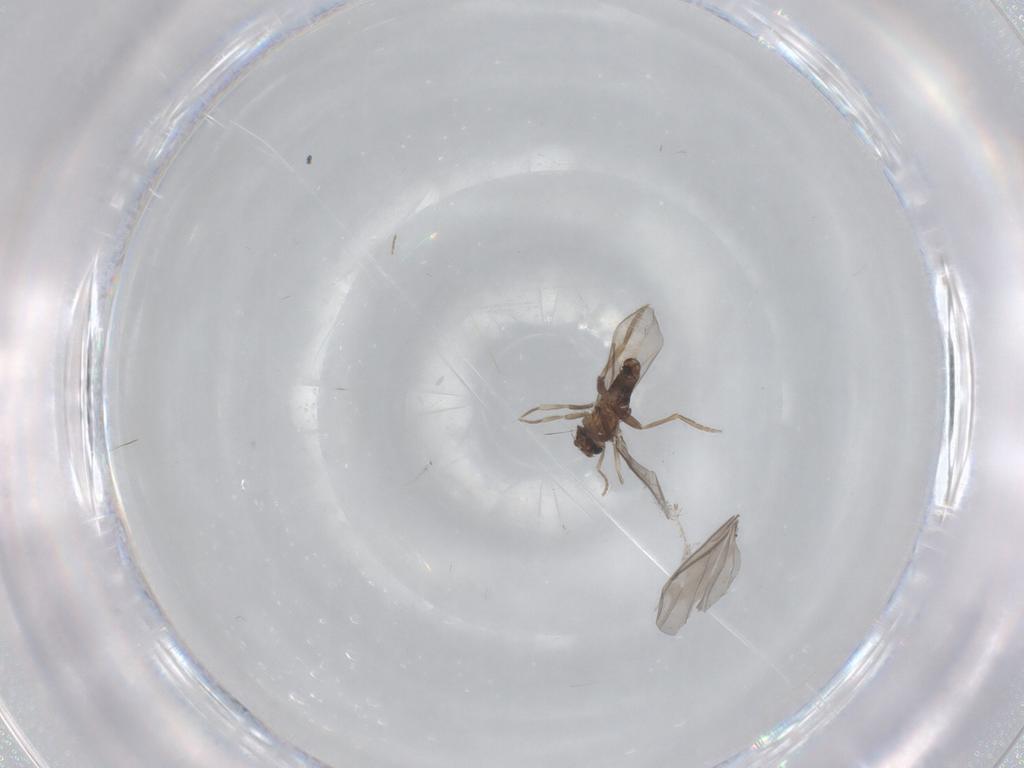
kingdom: Animalia
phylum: Arthropoda
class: Insecta
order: Diptera
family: Cecidomyiidae
